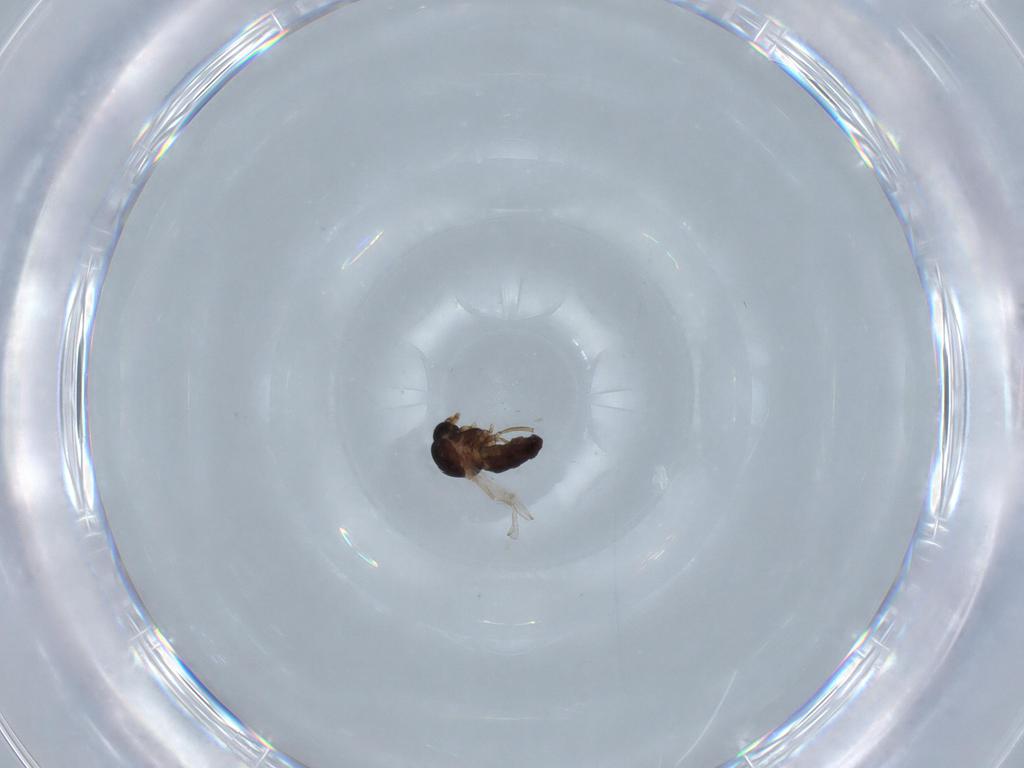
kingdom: Animalia
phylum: Arthropoda
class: Insecta
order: Diptera
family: Ceratopogonidae
